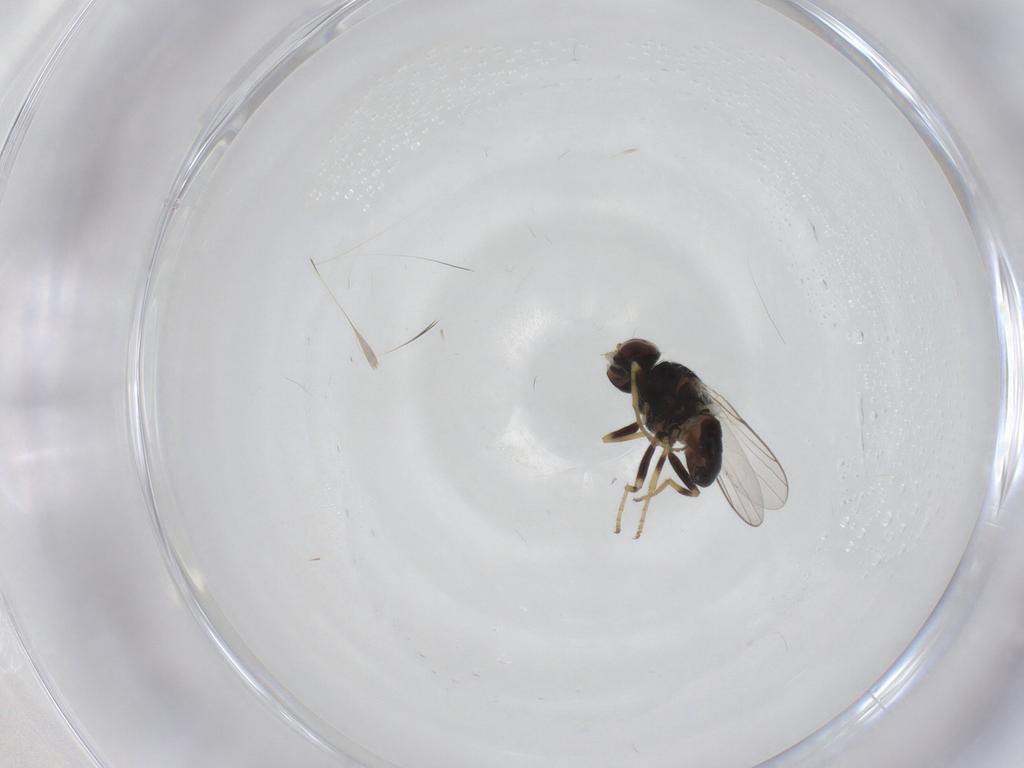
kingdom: Animalia
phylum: Arthropoda
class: Insecta
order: Diptera
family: Chloropidae
